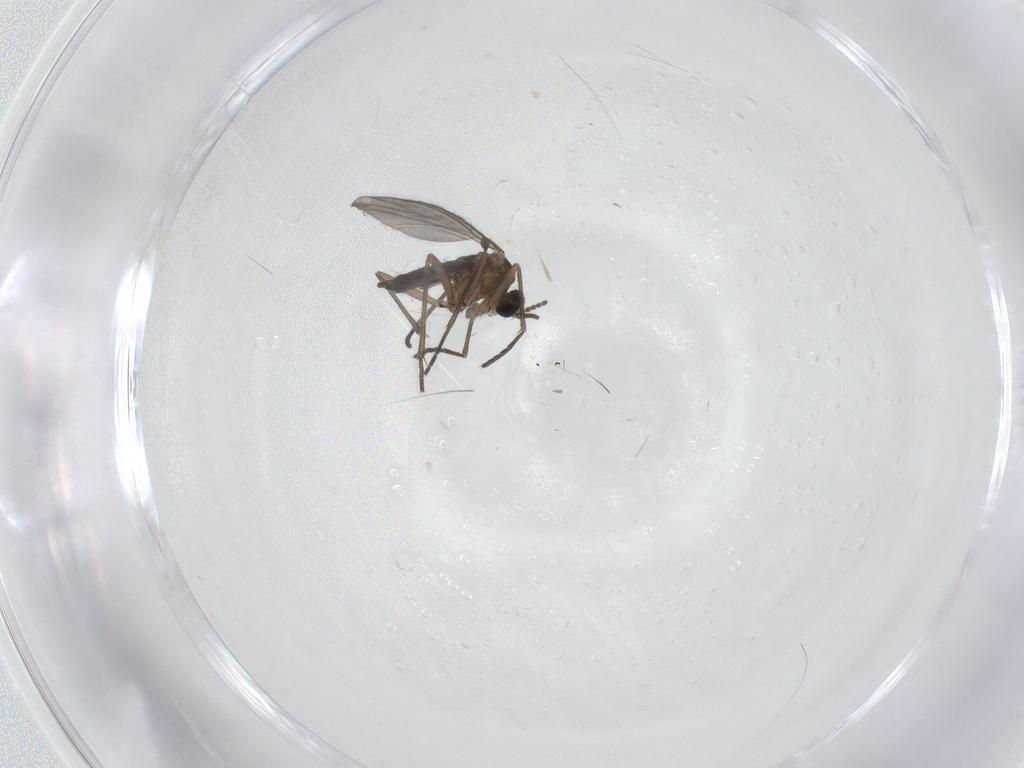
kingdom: Animalia
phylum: Arthropoda
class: Insecta
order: Diptera
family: Sciaridae
